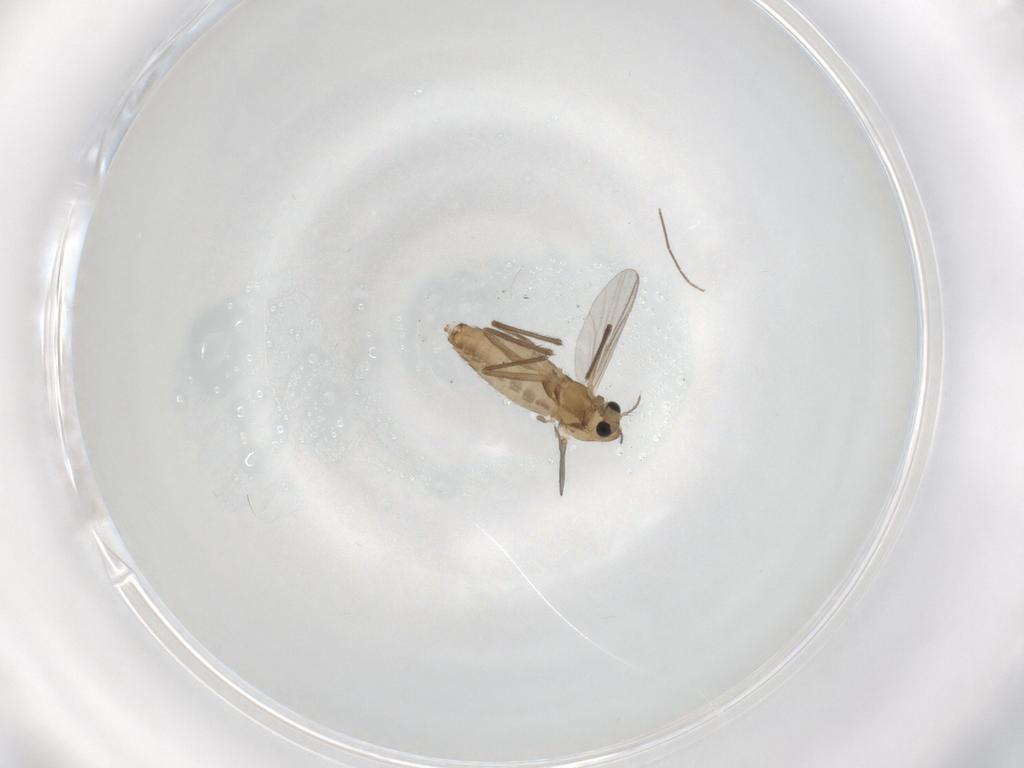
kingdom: Animalia
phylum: Arthropoda
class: Insecta
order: Diptera
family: Chironomidae
